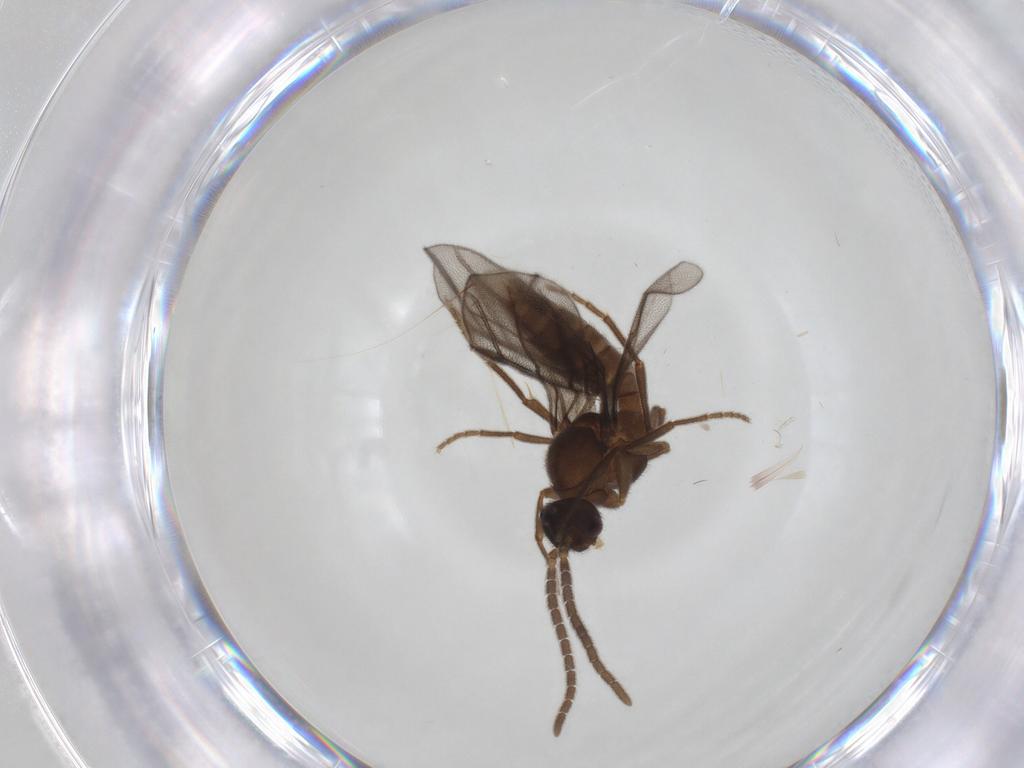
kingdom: Animalia
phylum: Arthropoda
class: Insecta
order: Hymenoptera
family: Formicidae
